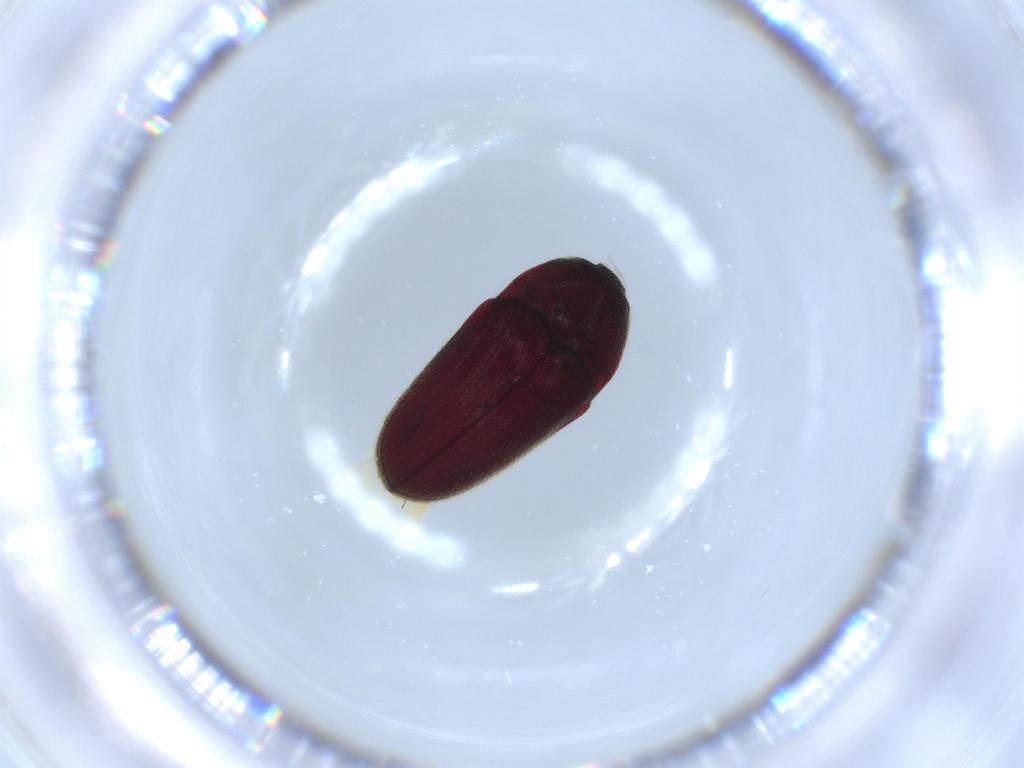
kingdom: Animalia
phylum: Arthropoda
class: Insecta
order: Coleoptera
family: Throscidae
